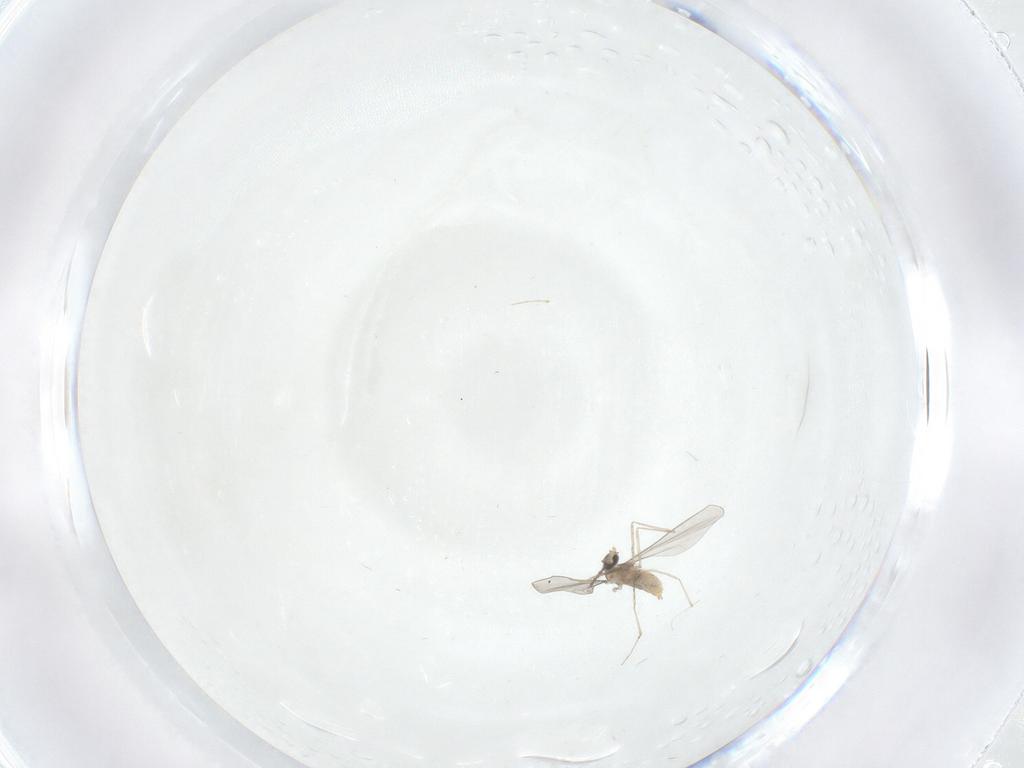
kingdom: Animalia
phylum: Arthropoda
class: Insecta
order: Diptera
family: Cecidomyiidae
